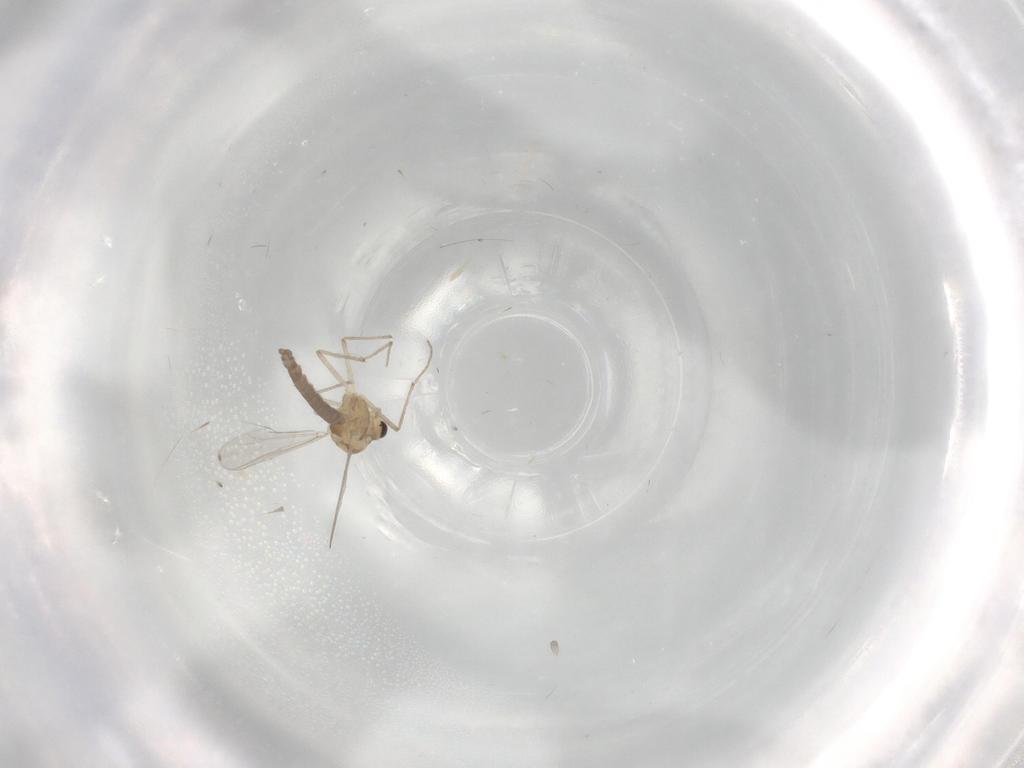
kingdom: Animalia
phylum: Arthropoda
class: Insecta
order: Diptera
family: Chironomidae
